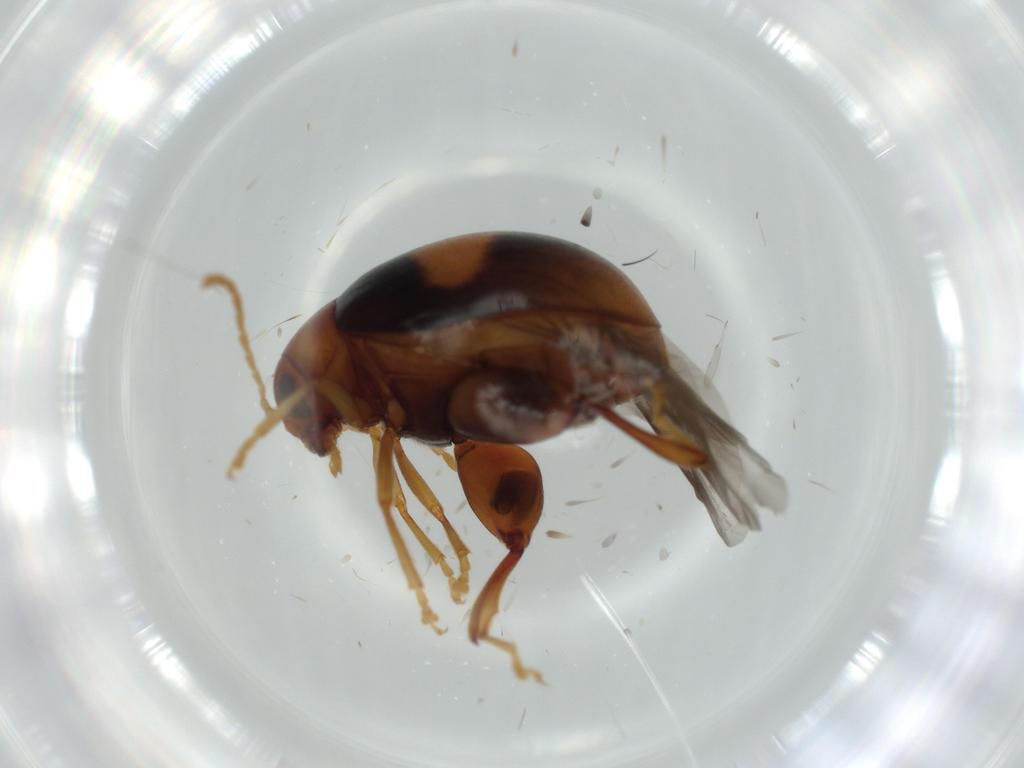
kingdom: Animalia
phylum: Arthropoda
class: Insecta
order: Coleoptera
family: Chrysomelidae
